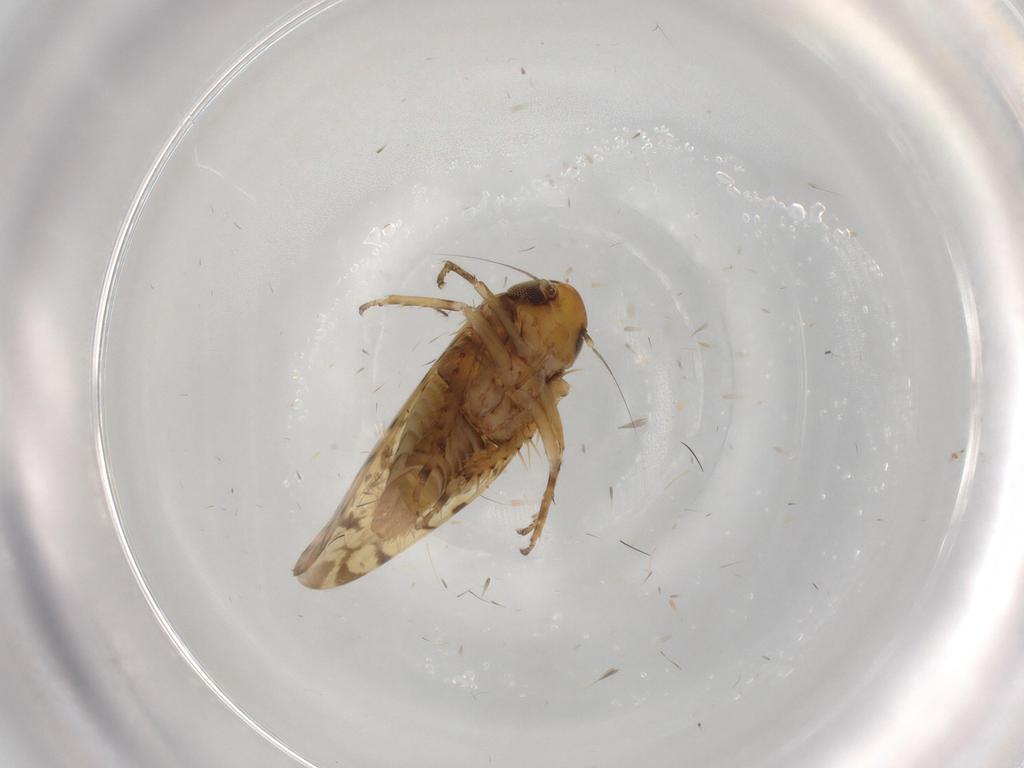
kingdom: Animalia
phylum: Arthropoda
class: Insecta
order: Hemiptera
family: Cicadellidae
